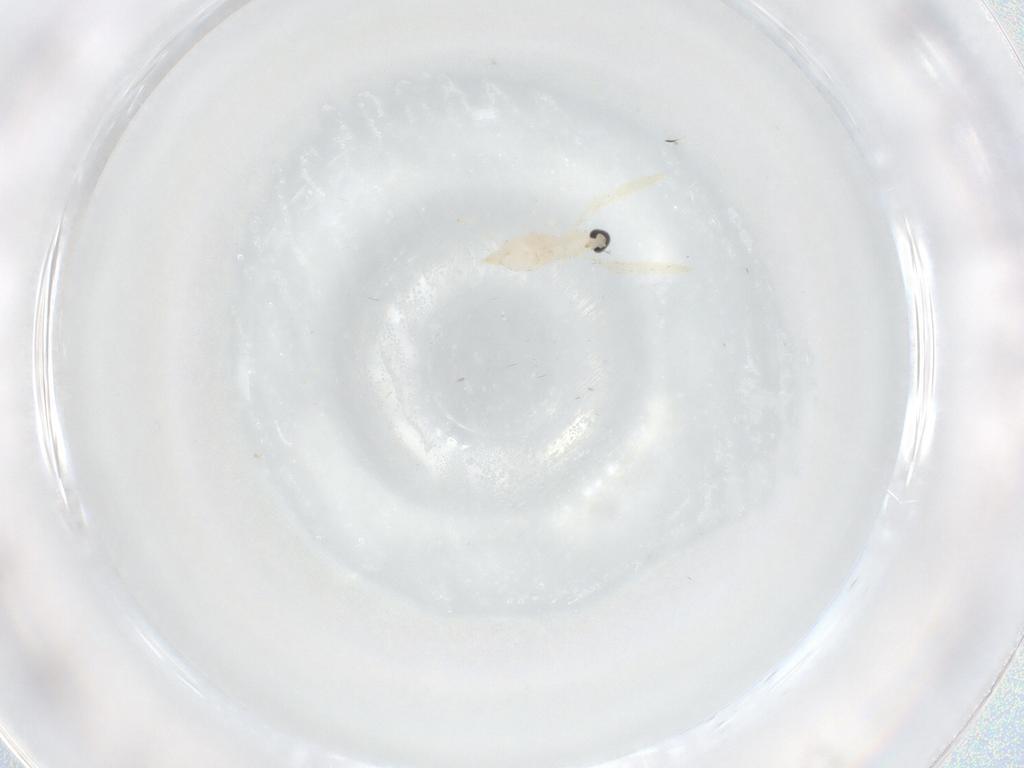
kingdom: Animalia
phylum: Arthropoda
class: Insecta
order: Diptera
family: Cecidomyiidae
